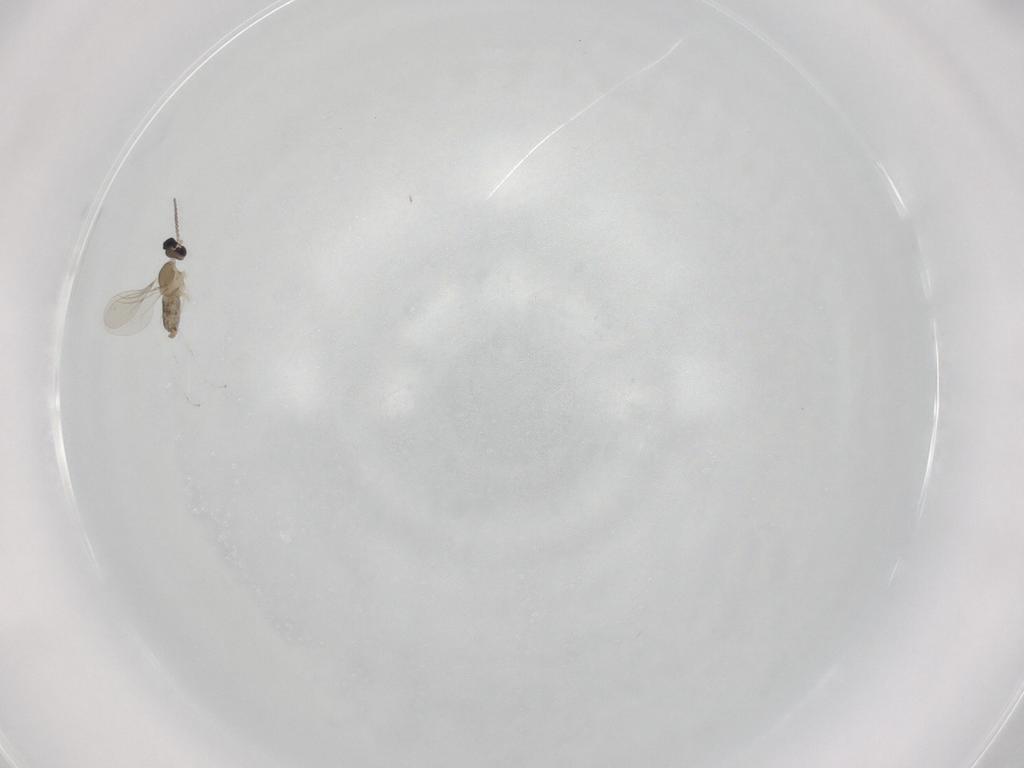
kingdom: Animalia
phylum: Arthropoda
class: Insecta
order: Diptera
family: Cecidomyiidae
